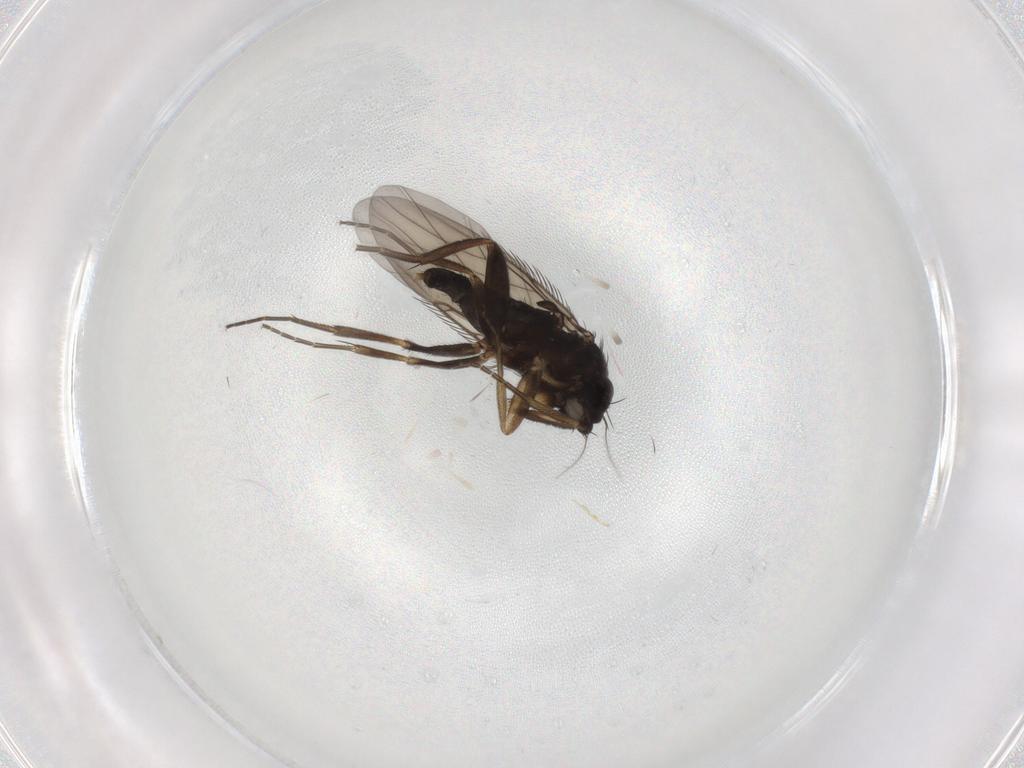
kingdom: Animalia
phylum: Arthropoda
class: Insecta
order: Diptera
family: Phoridae
